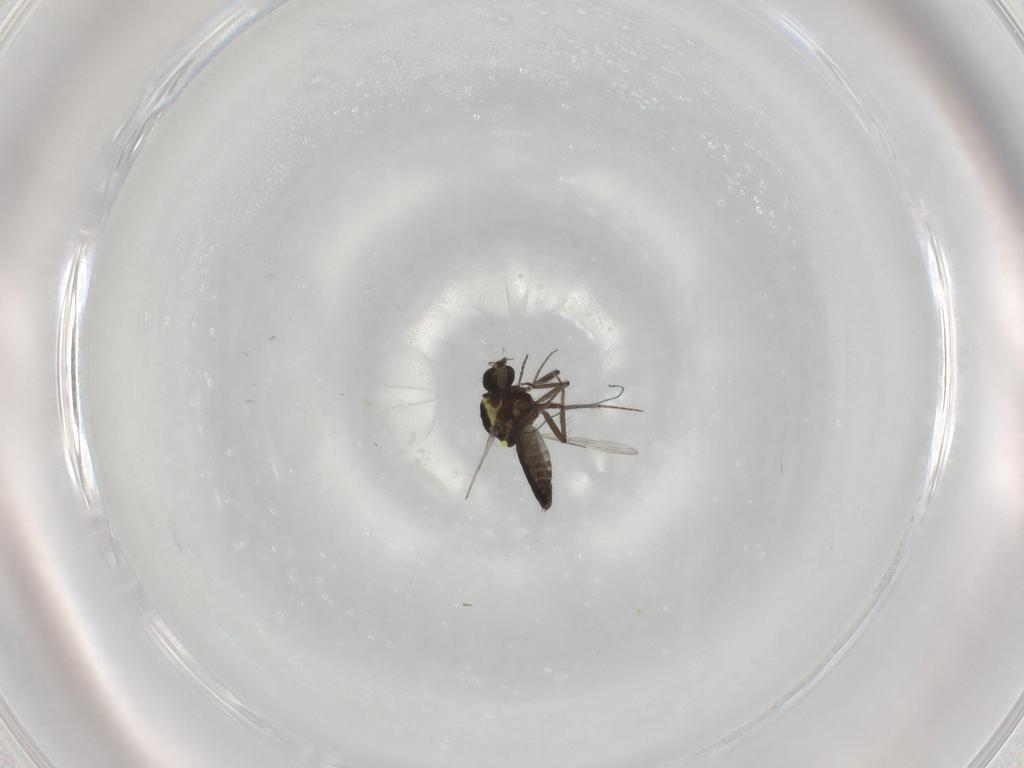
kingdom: Animalia
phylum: Arthropoda
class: Insecta
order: Diptera
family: Ceratopogonidae
